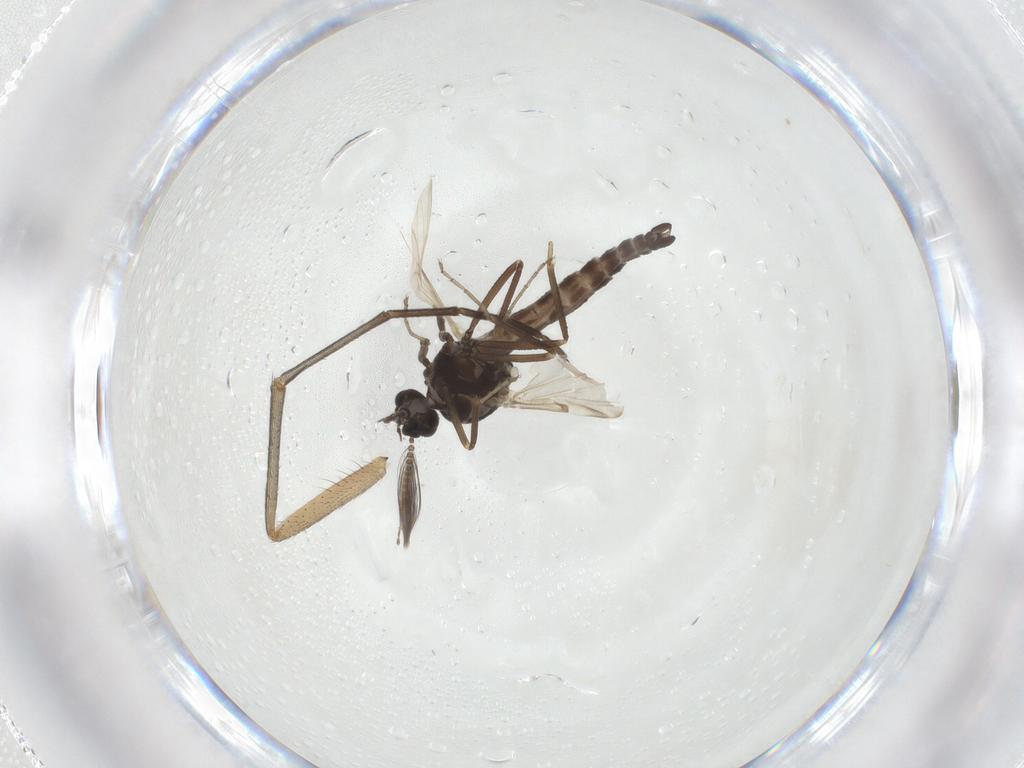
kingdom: Animalia
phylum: Arthropoda
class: Insecta
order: Diptera
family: Ceratopogonidae
